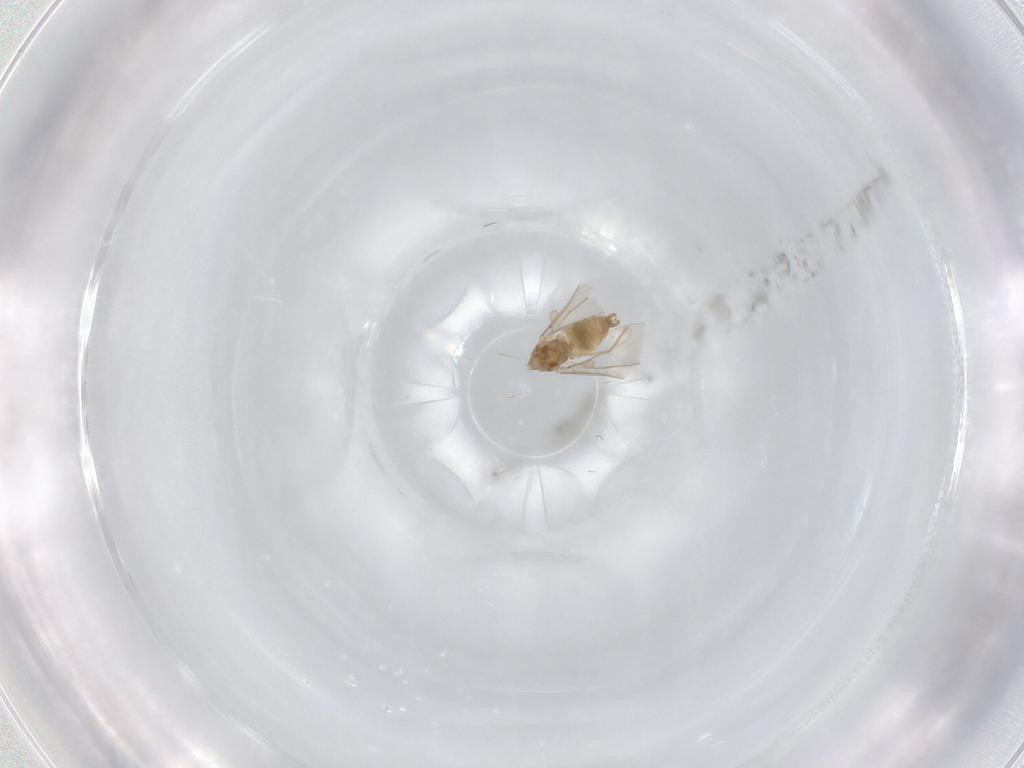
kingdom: Animalia
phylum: Arthropoda
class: Insecta
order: Diptera
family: Cecidomyiidae
